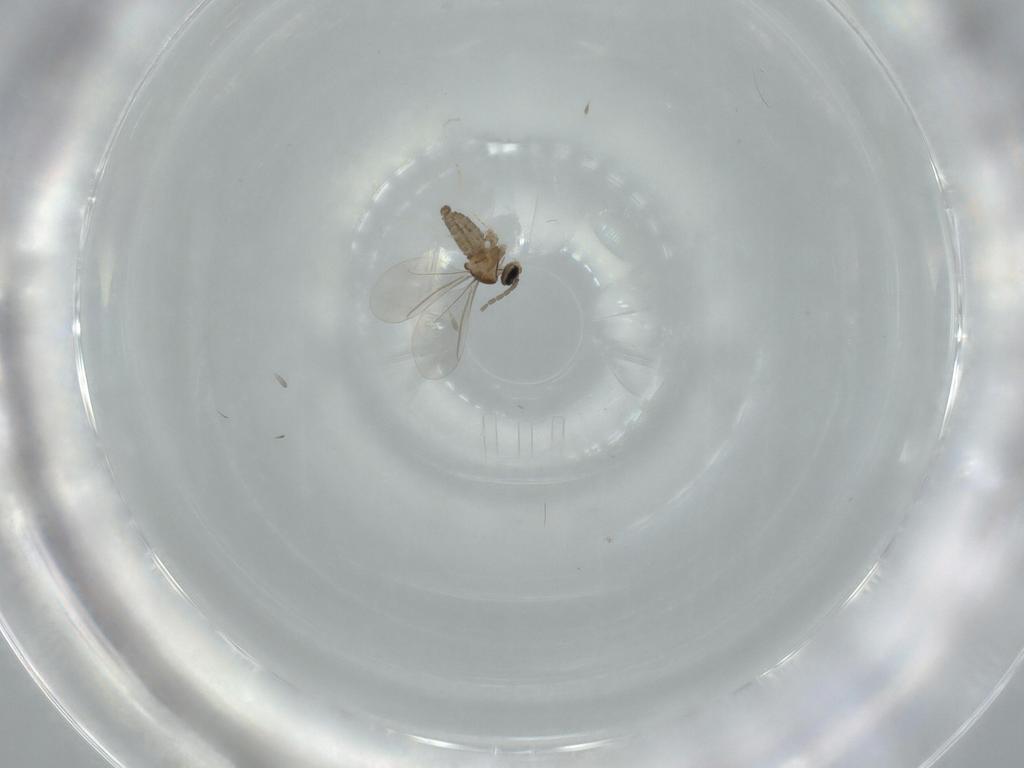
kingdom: Animalia
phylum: Arthropoda
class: Insecta
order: Diptera
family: Cecidomyiidae
